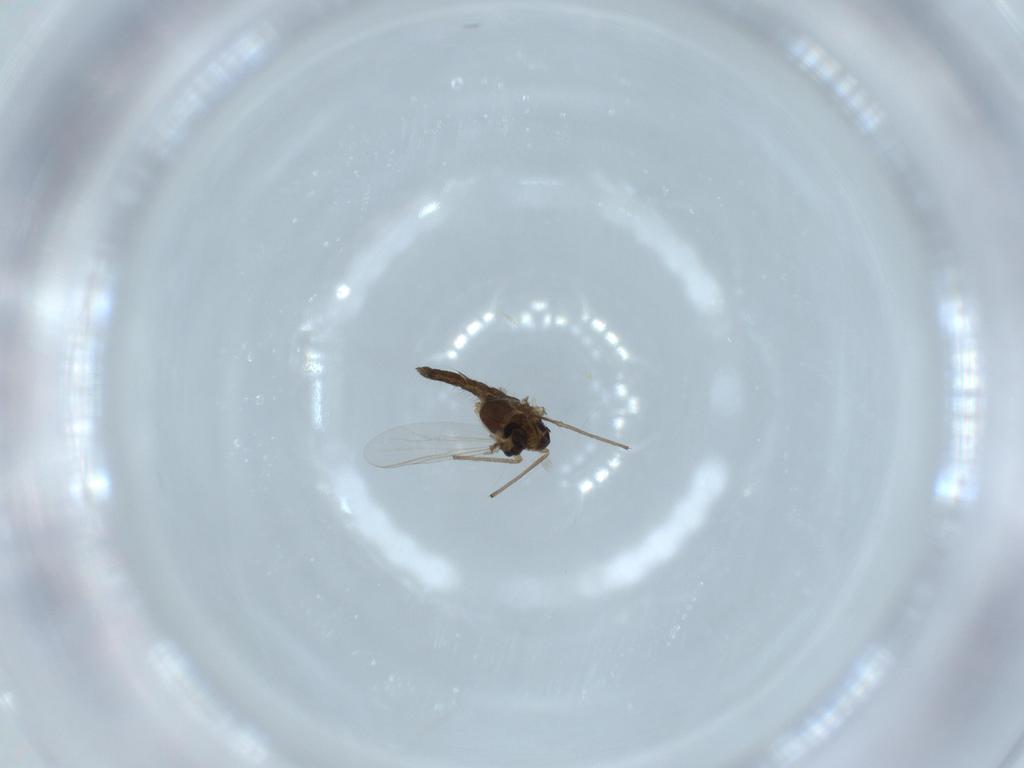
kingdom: Animalia
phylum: Arthropoda
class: Insecta
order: Diptera
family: Chironomidae
